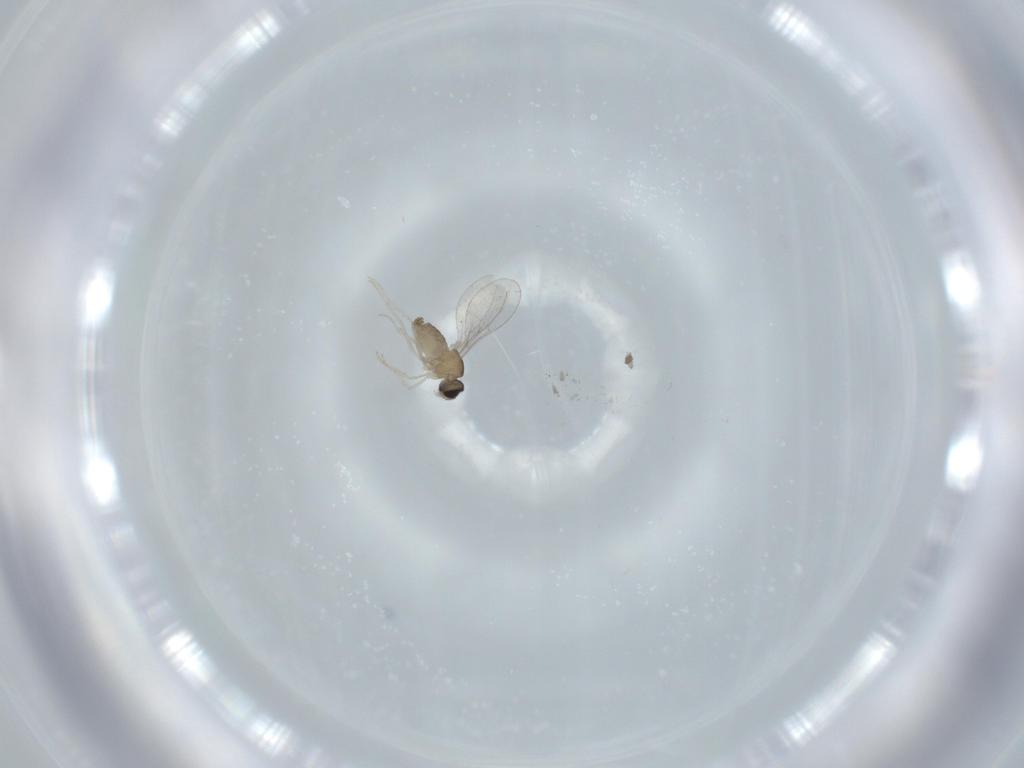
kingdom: Animalia
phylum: Arthropoda
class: Insecta
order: Diptera
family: Cecidomyiidae
